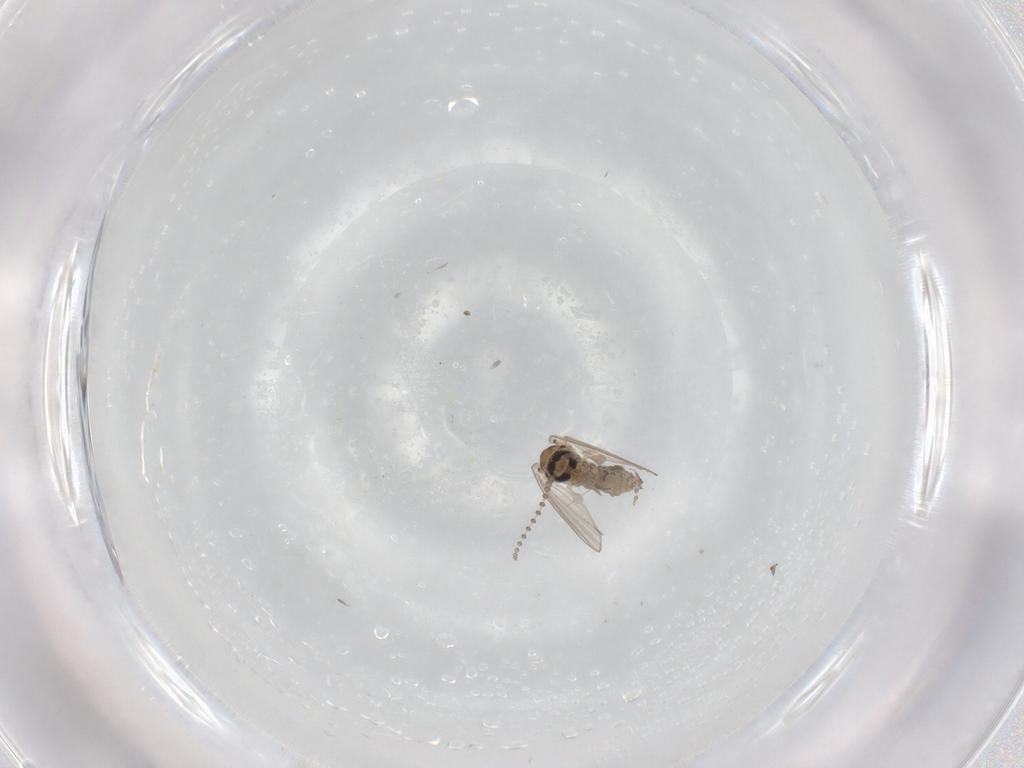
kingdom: Animalia
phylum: Arthropoda
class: Insecta
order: Diptera
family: Psychodidae
